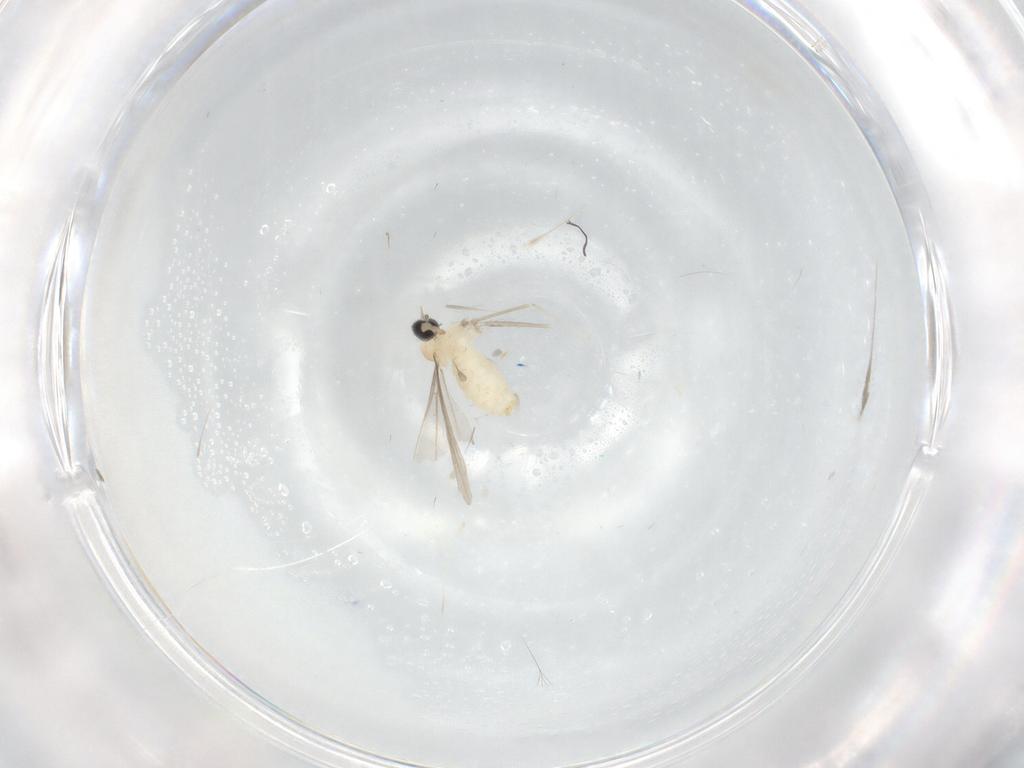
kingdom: Animalia
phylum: Arthropoda
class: Insecta
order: Diptera
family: Cecidomyiidae
